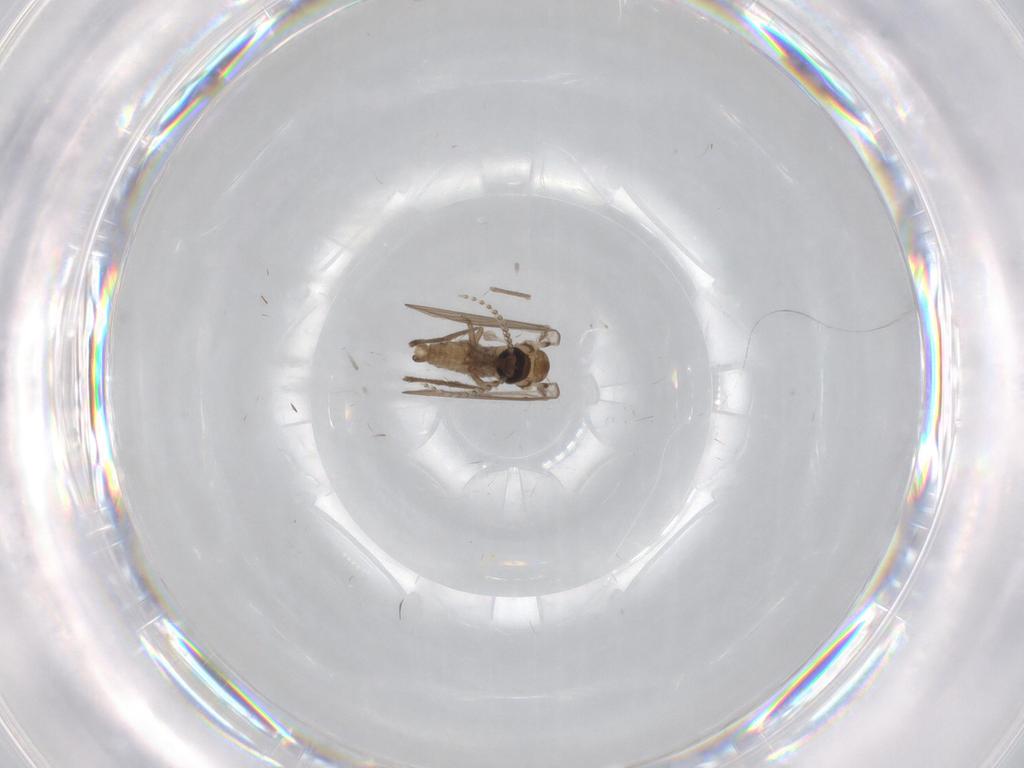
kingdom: Animalia
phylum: Arthropoda
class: Insecta
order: Diptera
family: Psychodidae
